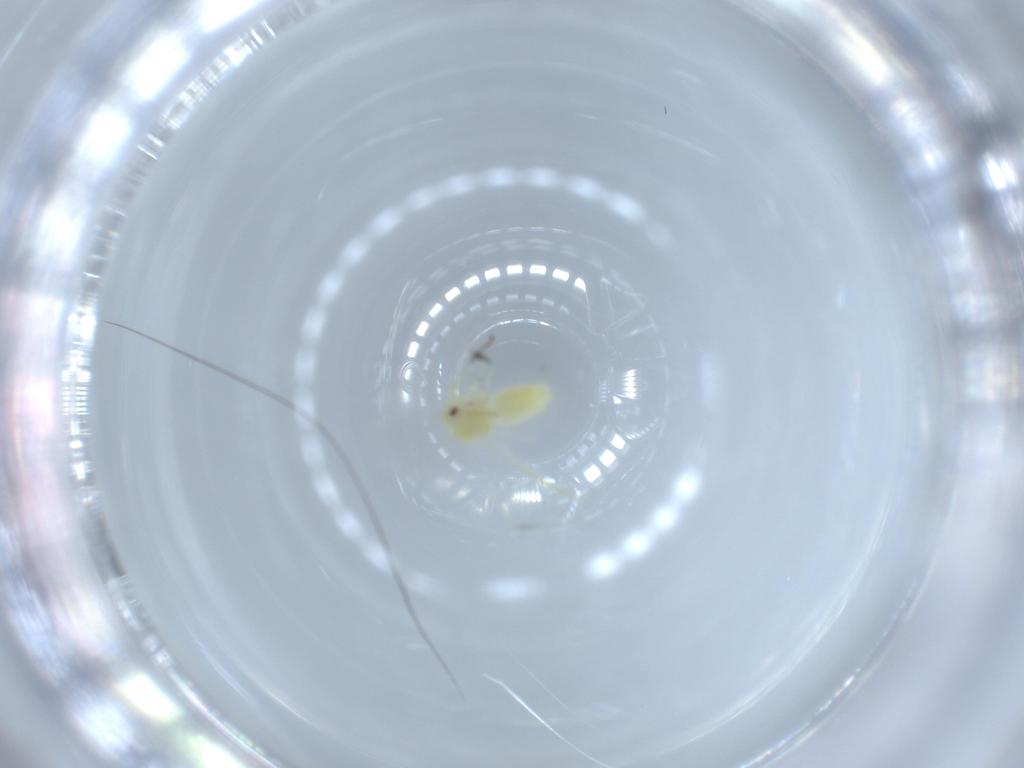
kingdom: Animalia
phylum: Arthropoda
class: Insecta
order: Hemiptera
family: Aleyrodidae
